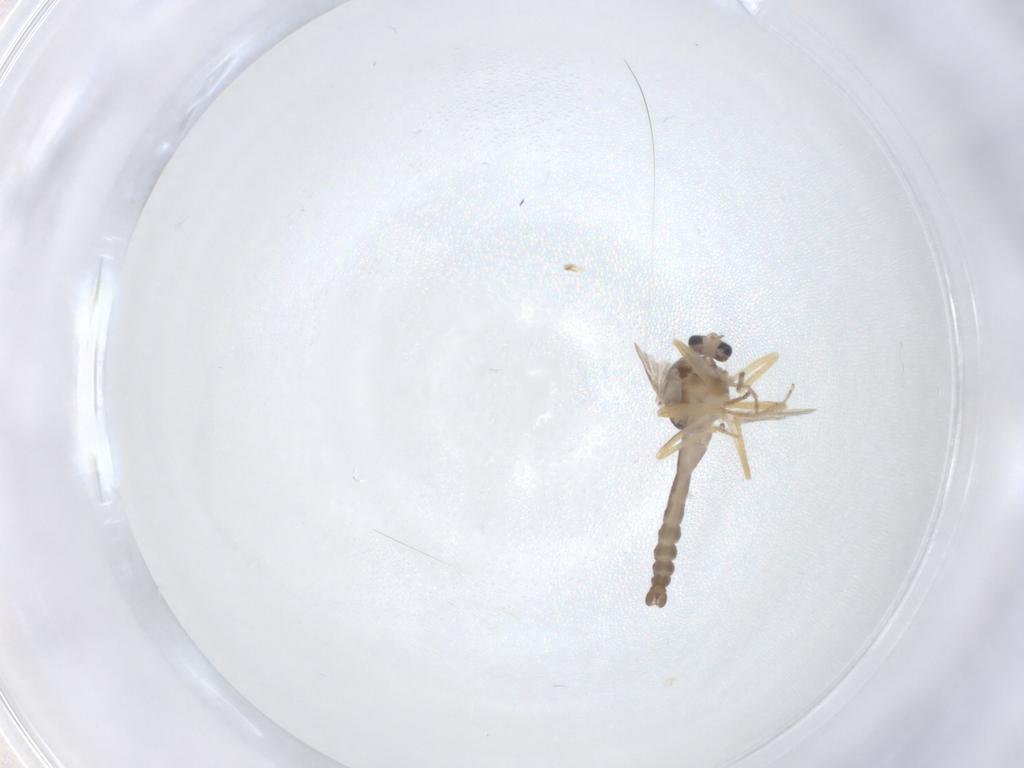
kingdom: Animalia
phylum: Arthropoda
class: Insecta
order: Diptera
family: Ceratopogonidae
